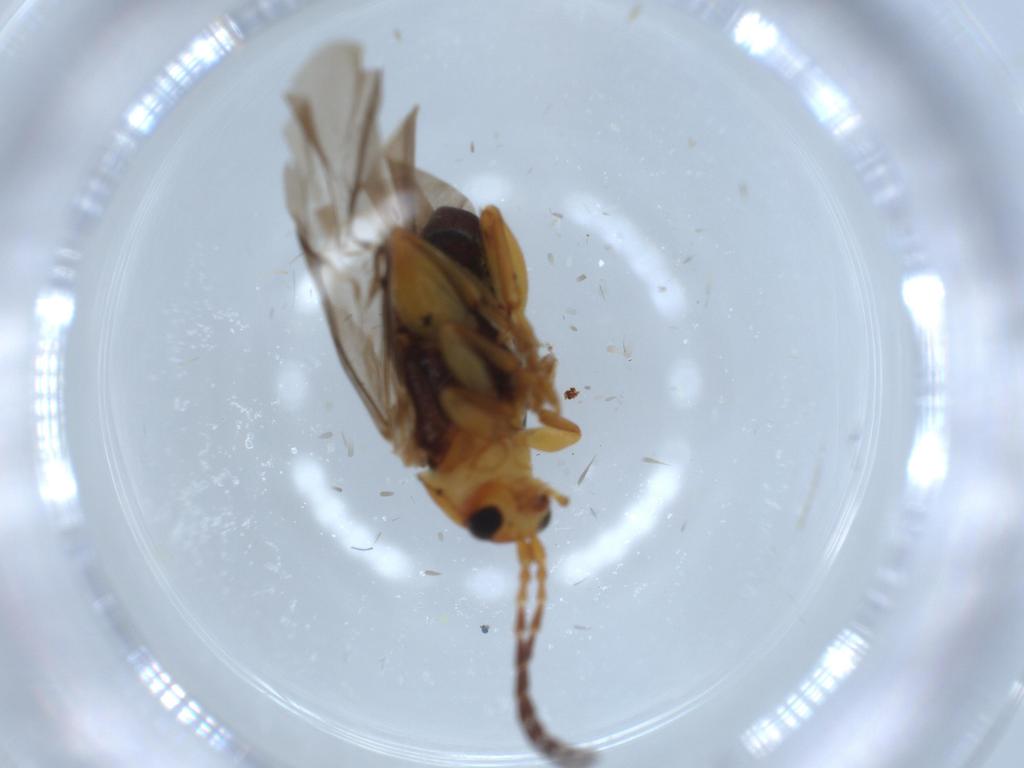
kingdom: Animalia
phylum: Arthropoda
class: Insecta
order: Coleoptera
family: Chrysomelidae
